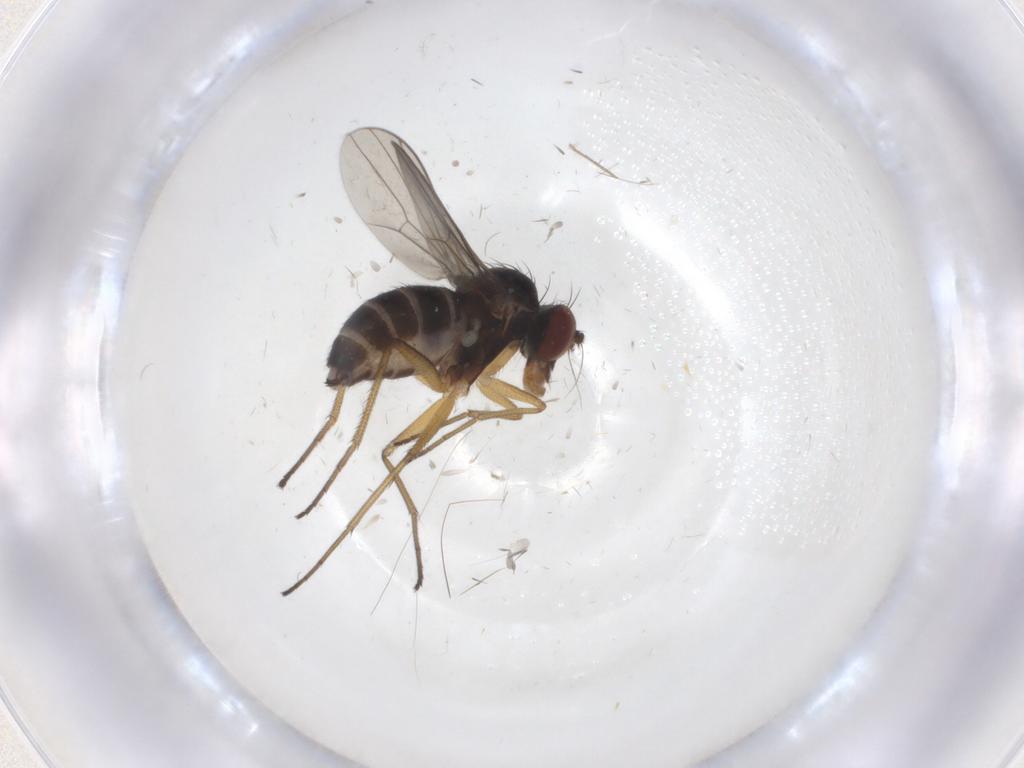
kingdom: Animalia
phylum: Arthropoda
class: Insecta
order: Diptera
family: Dolichopodidae
